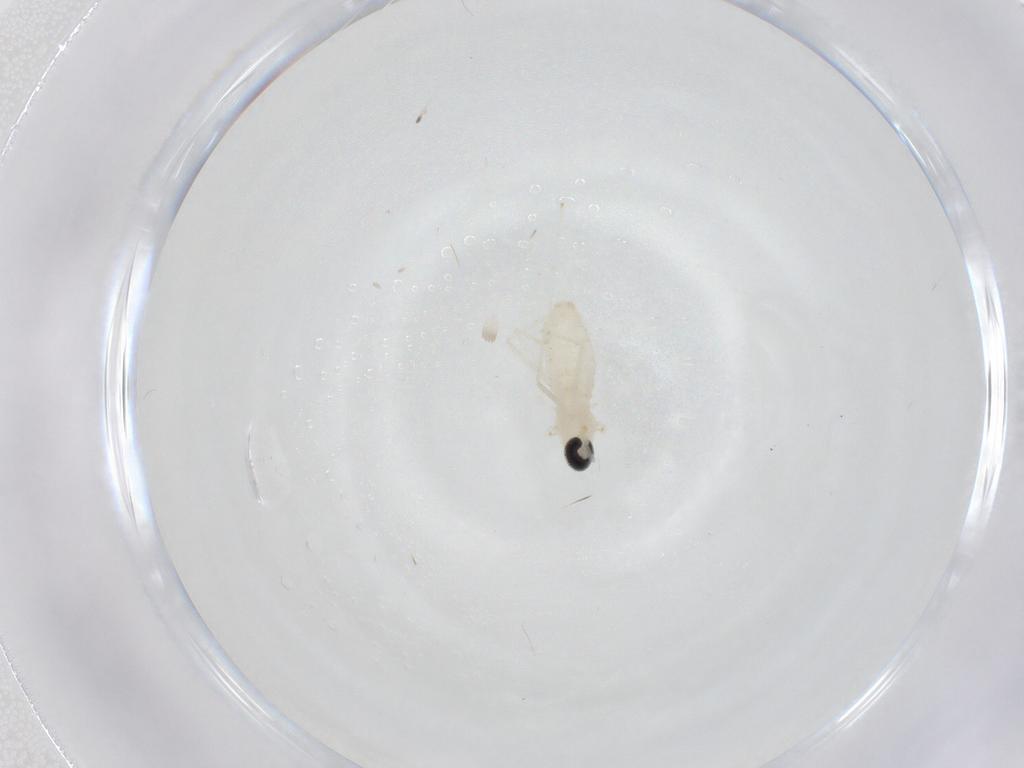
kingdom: Animalia
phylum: Arthropoda
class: Insecta
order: Diptera
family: Cecidomyiidae
